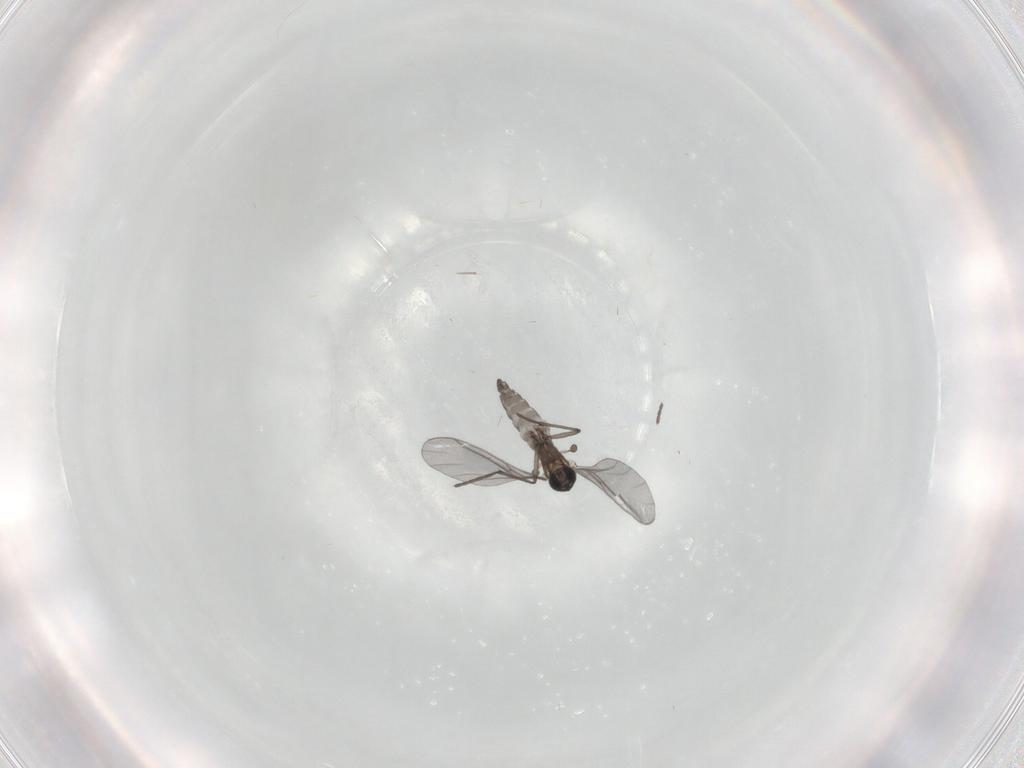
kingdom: Animalia
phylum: Arthropoda
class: Insecta
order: Diptera
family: Sciaridae
